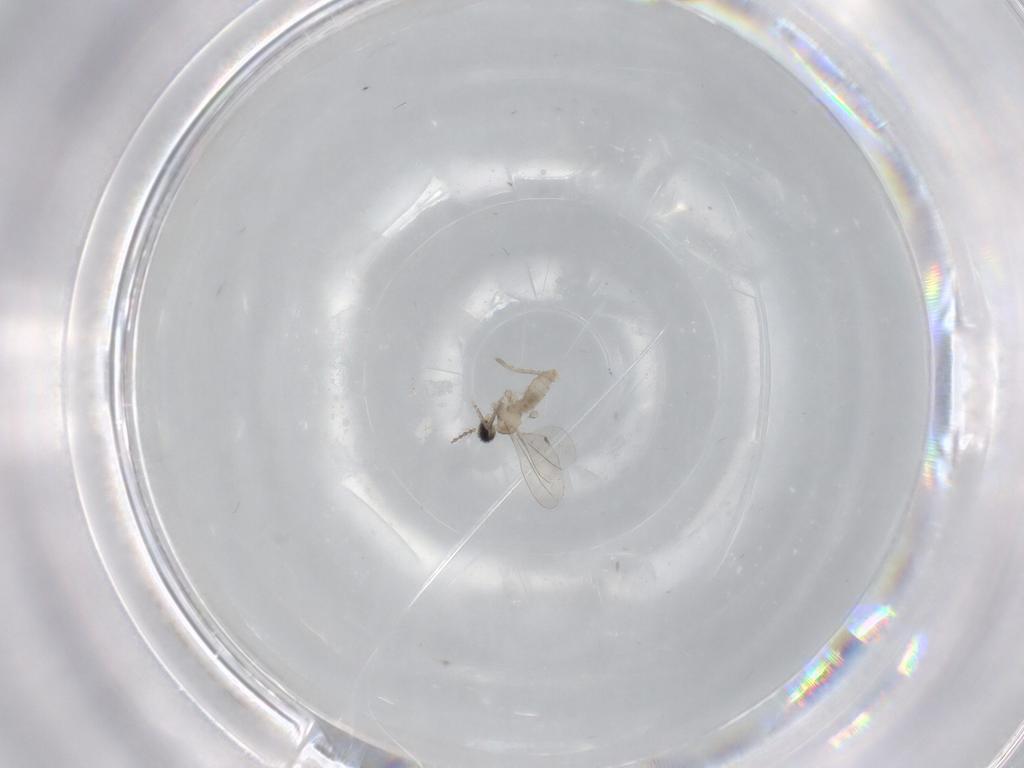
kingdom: Animalia
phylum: Arthropoda
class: Insecta
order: Diptera
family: Cecidomyiidae
